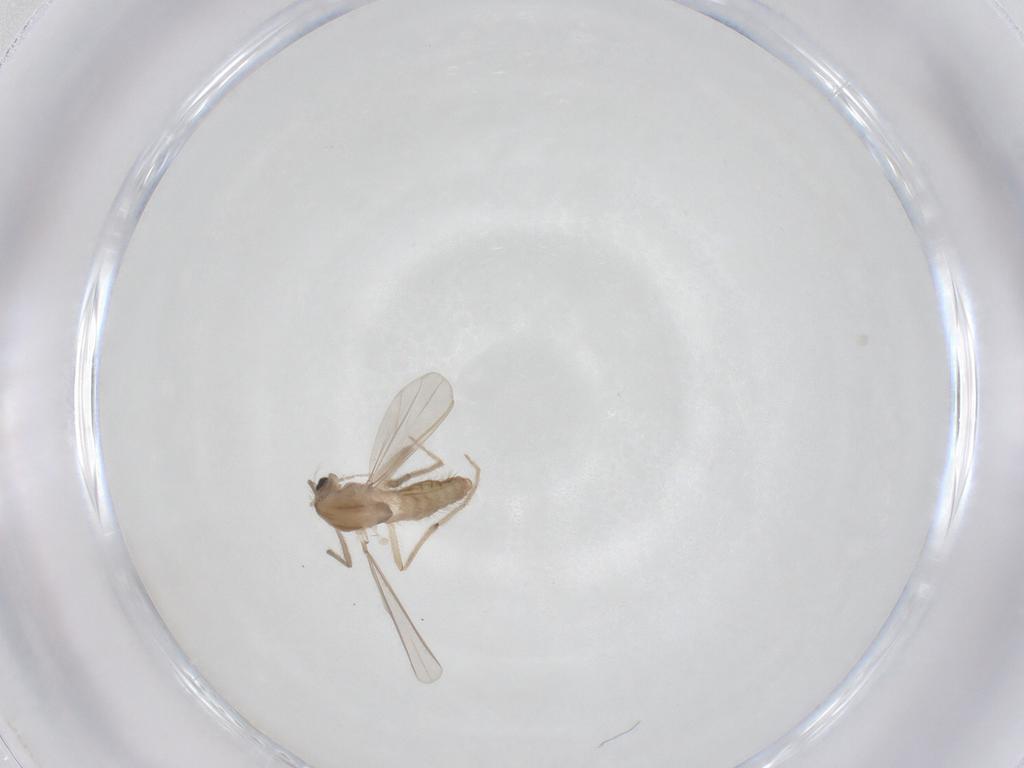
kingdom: Animalia
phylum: Arthropoda
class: Insecta
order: Diptera
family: Chironomidae
